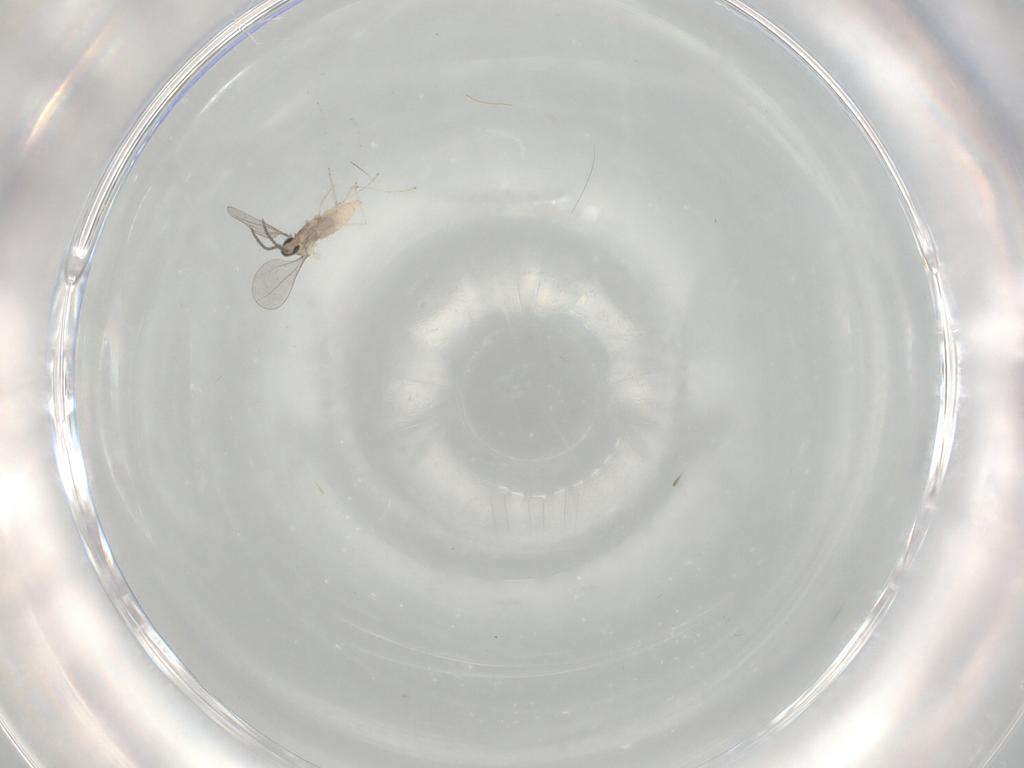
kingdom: Animalia
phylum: Arthropoda
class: Insecta
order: Diptera
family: Cecidomyiidae
